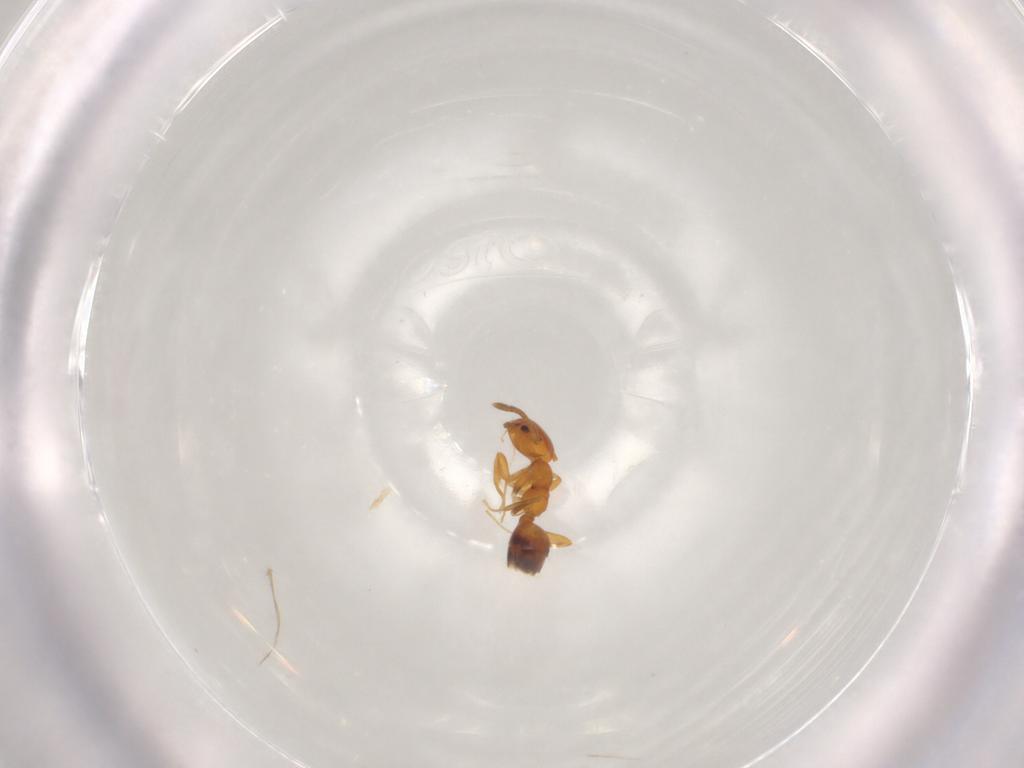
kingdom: Animalia
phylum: Arthropoda
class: Insecta
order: Hymenoptera
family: Formicidae
